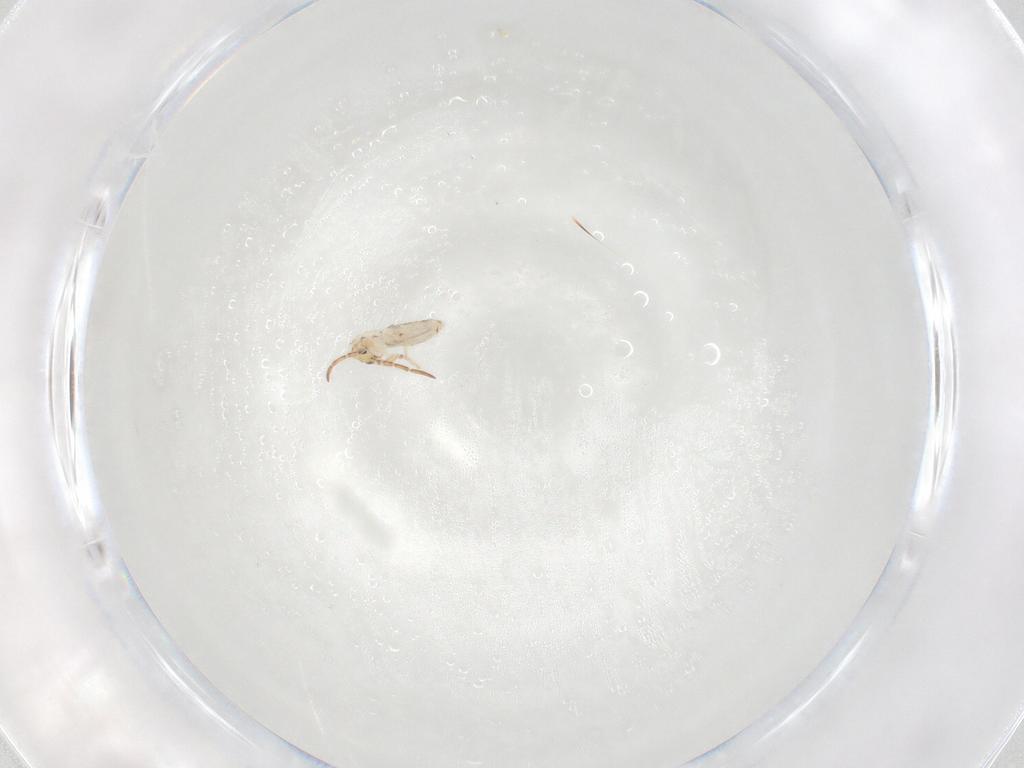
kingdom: Animalia
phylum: Arthropoda
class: Collembola
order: Entomobryomorpha
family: Entomobryidae
